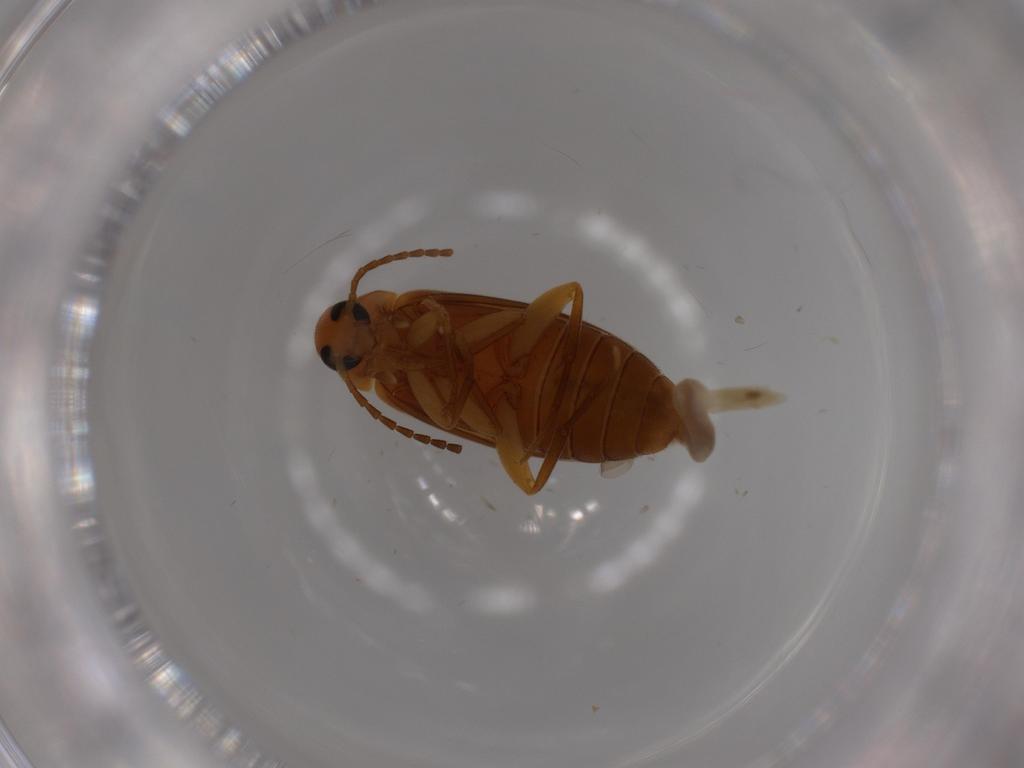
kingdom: Animalia
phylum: Arthropoda
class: Insecta
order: Coleoptera
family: Scraptiidae
